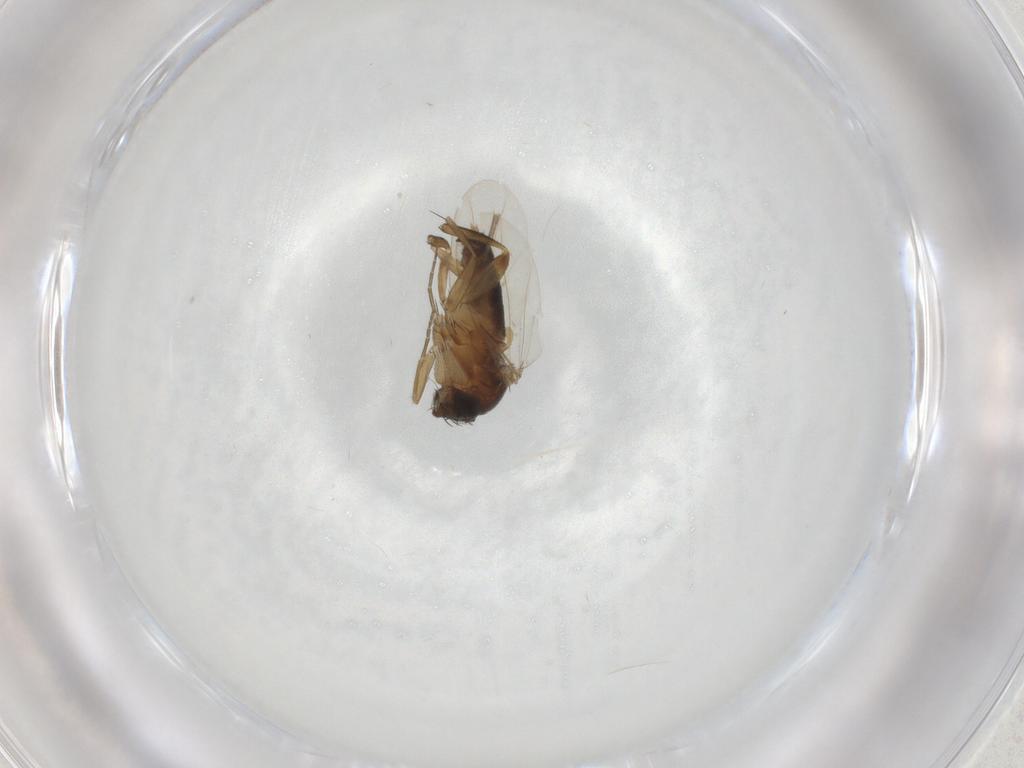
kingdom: Animalia
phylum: Arthropoda
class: Insecta
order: Diptera
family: Phoridae
